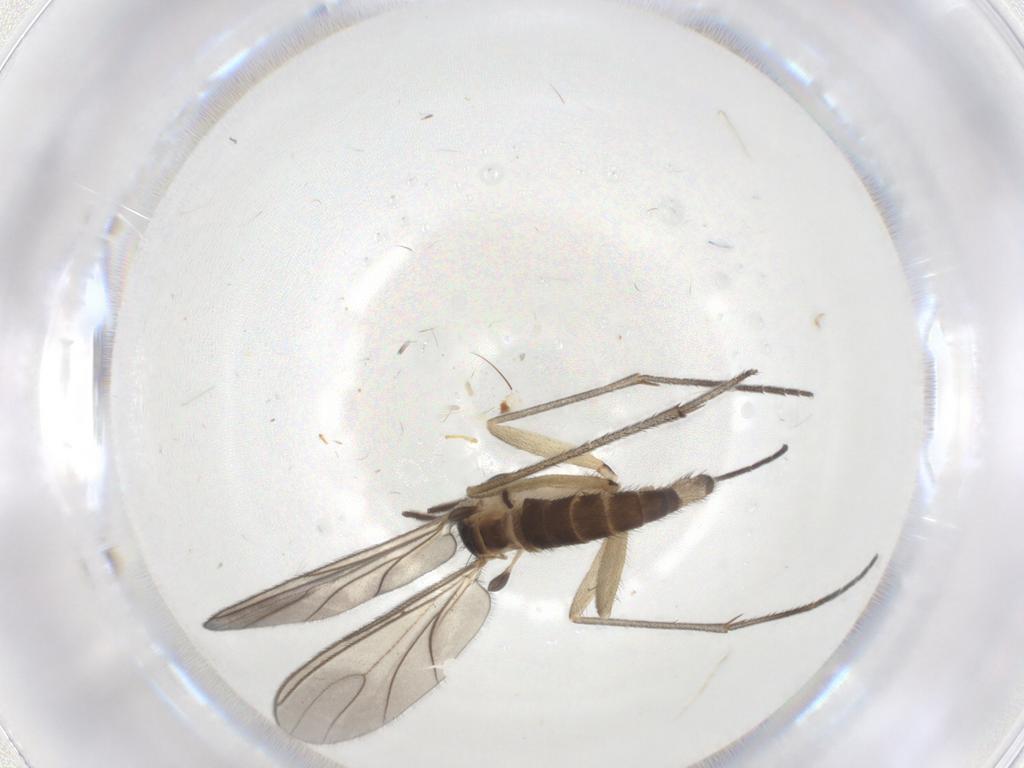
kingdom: Animalia
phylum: Arthropoda
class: Insecta
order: Diptera
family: Sciaridae
